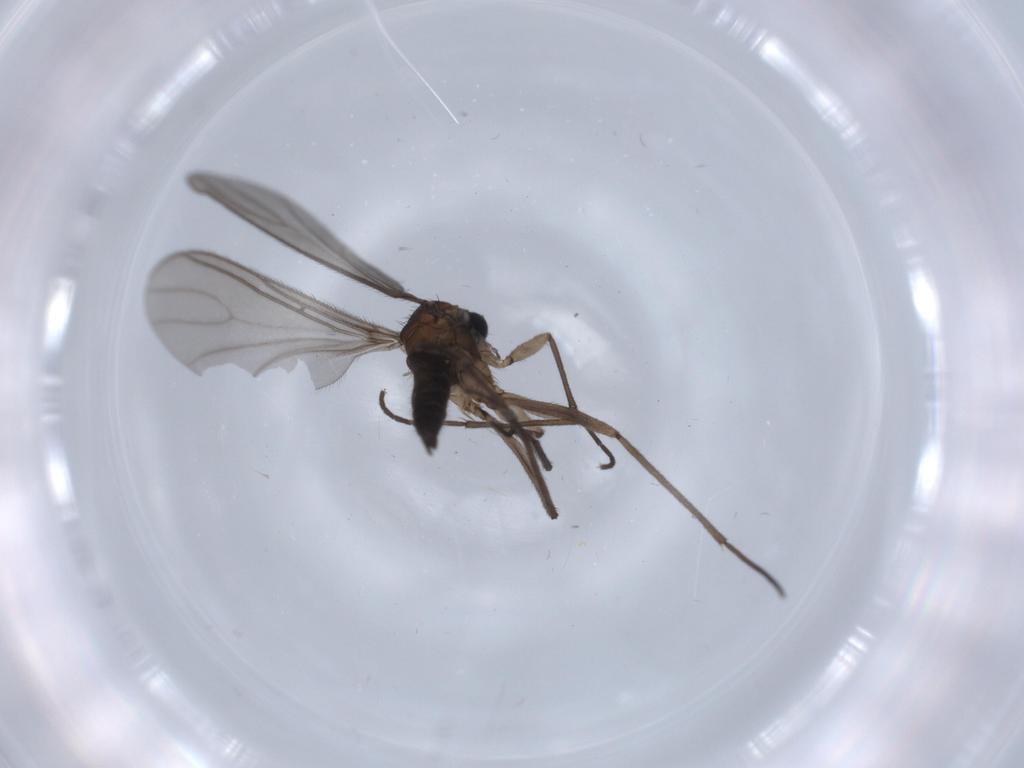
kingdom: Animalia
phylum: Arthropoda
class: Insecta
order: Diptera
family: Sciaridae
